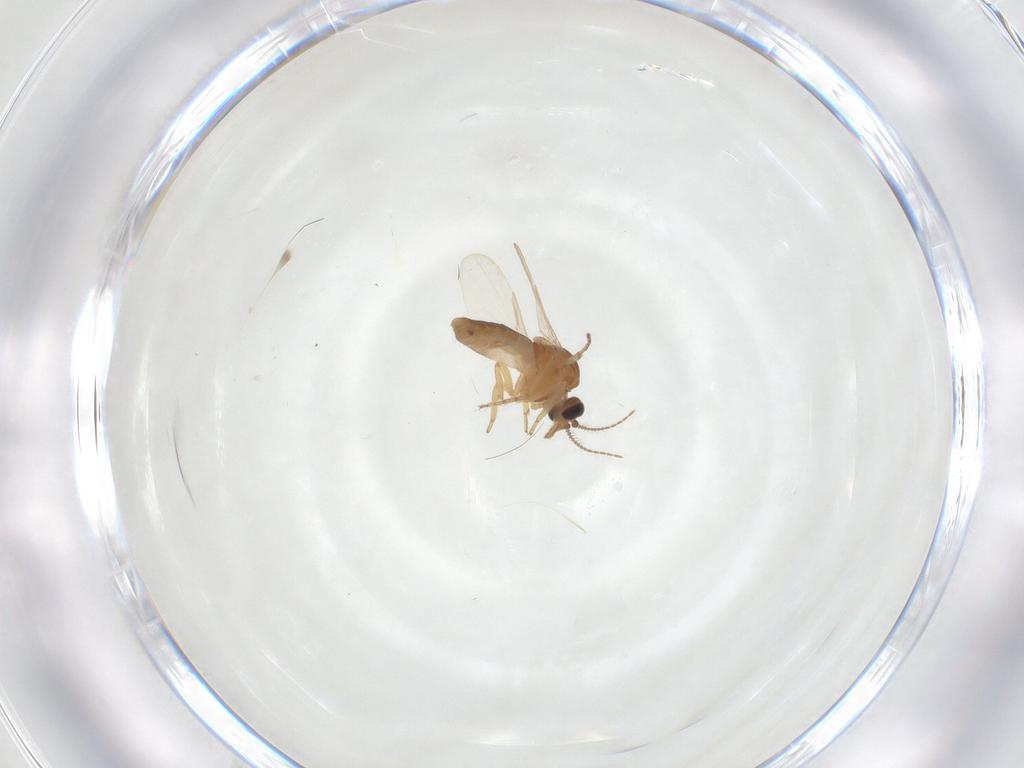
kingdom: Animalia
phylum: Arthropoda
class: Insecta
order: Diptera
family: Ceratopogonidae
